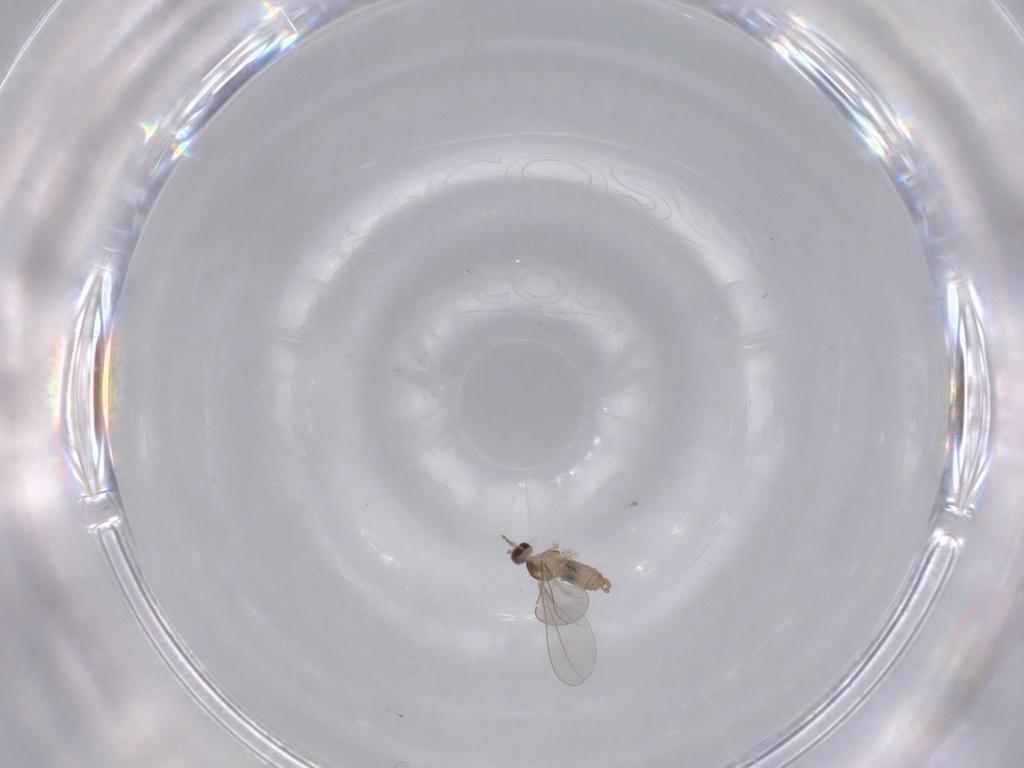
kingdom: Animalia
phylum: Arthropoda
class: Insecta
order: Diptera
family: Cecidomyiidae
